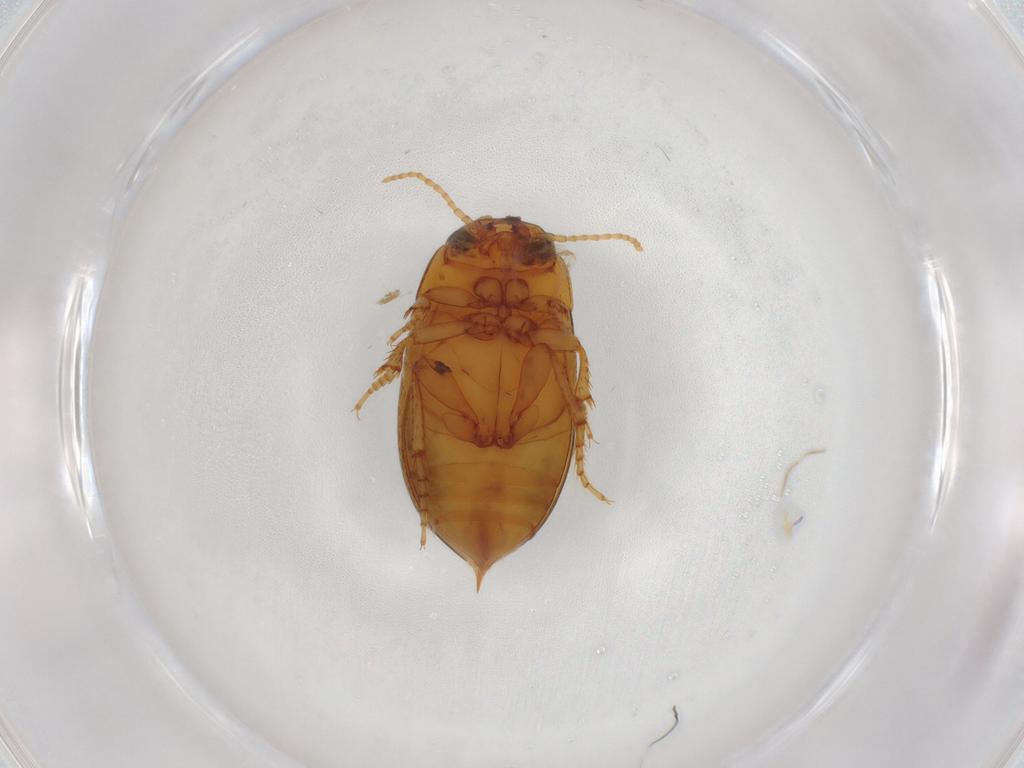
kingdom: Animalia
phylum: Arthropoda
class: Insecta
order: Coleoptera
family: Dytiscidae
